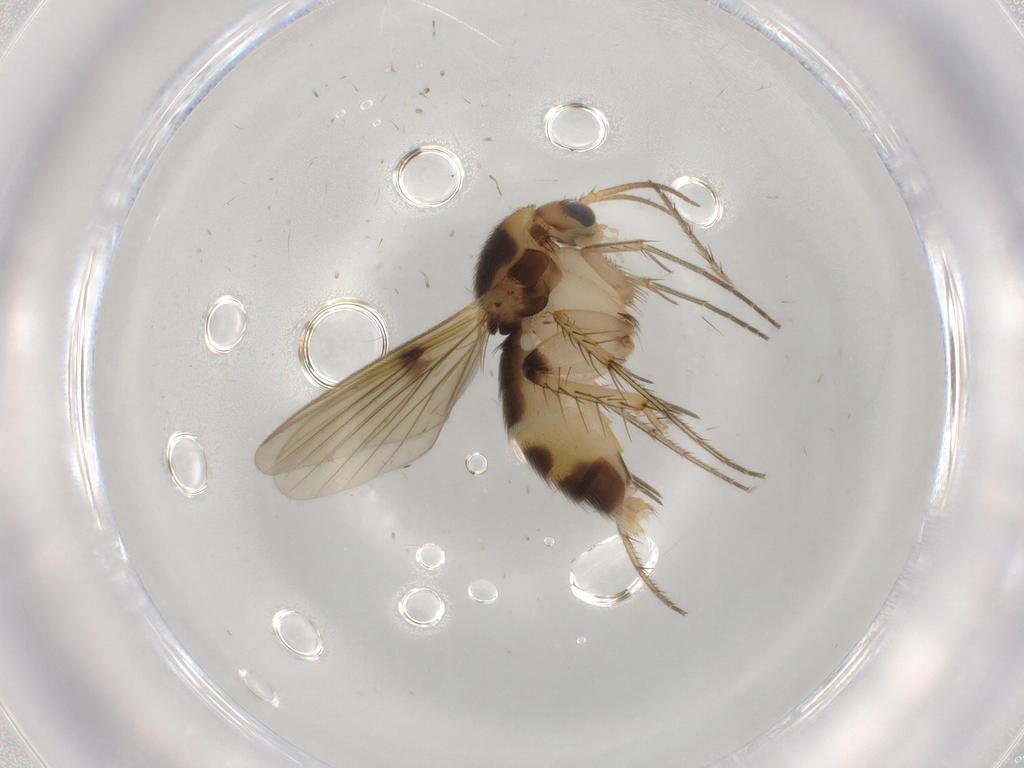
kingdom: Animalia
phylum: Arthropoda
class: Insecta
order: Diptera
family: Mycetophilidae
